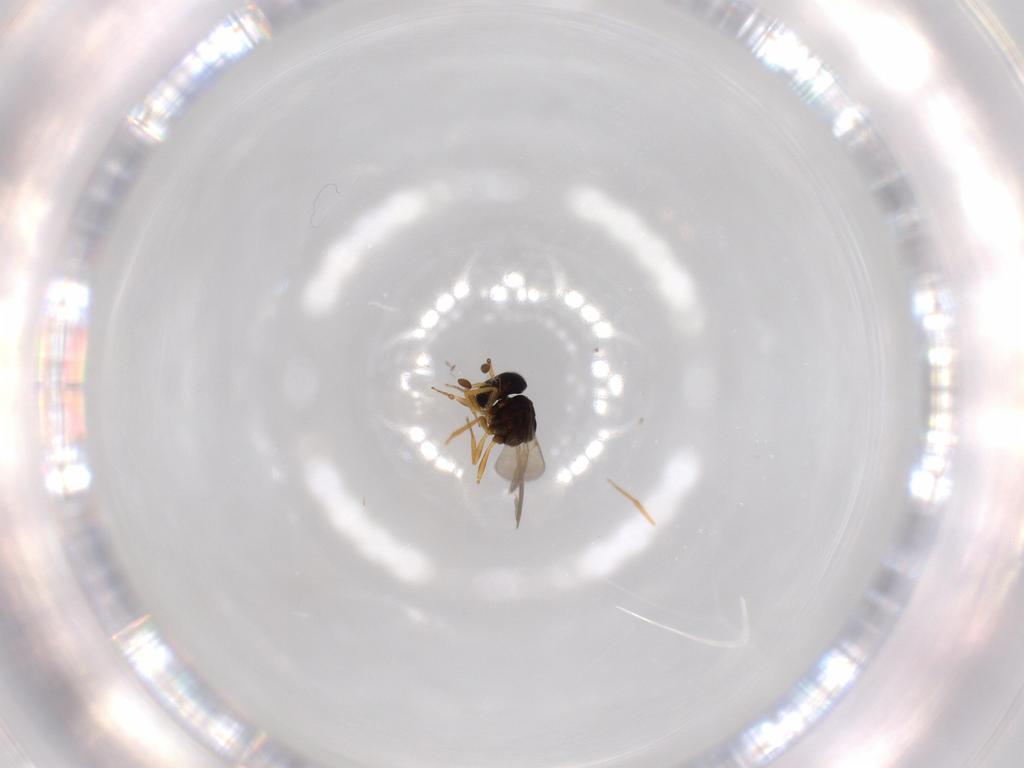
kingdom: Animalia
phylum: Arthropoda
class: Insecta
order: Hymenoptera
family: Scelionidae
